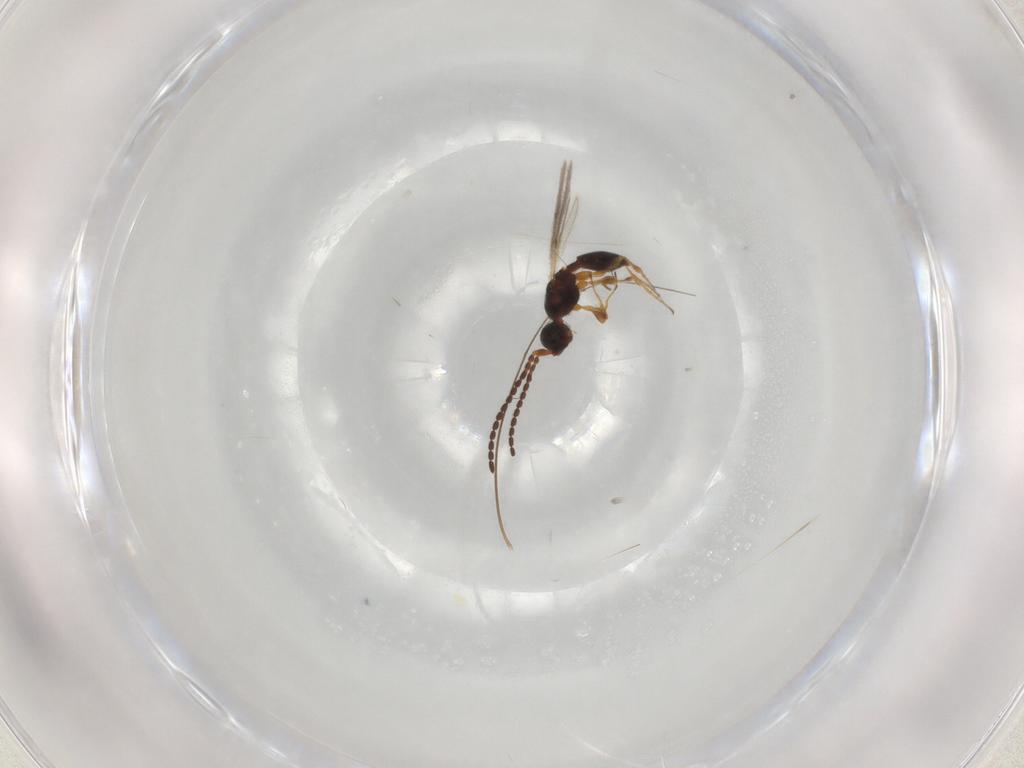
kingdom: Animalia
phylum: Arthropoda
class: Insecta
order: Hymenoptera
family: Diapriidae
